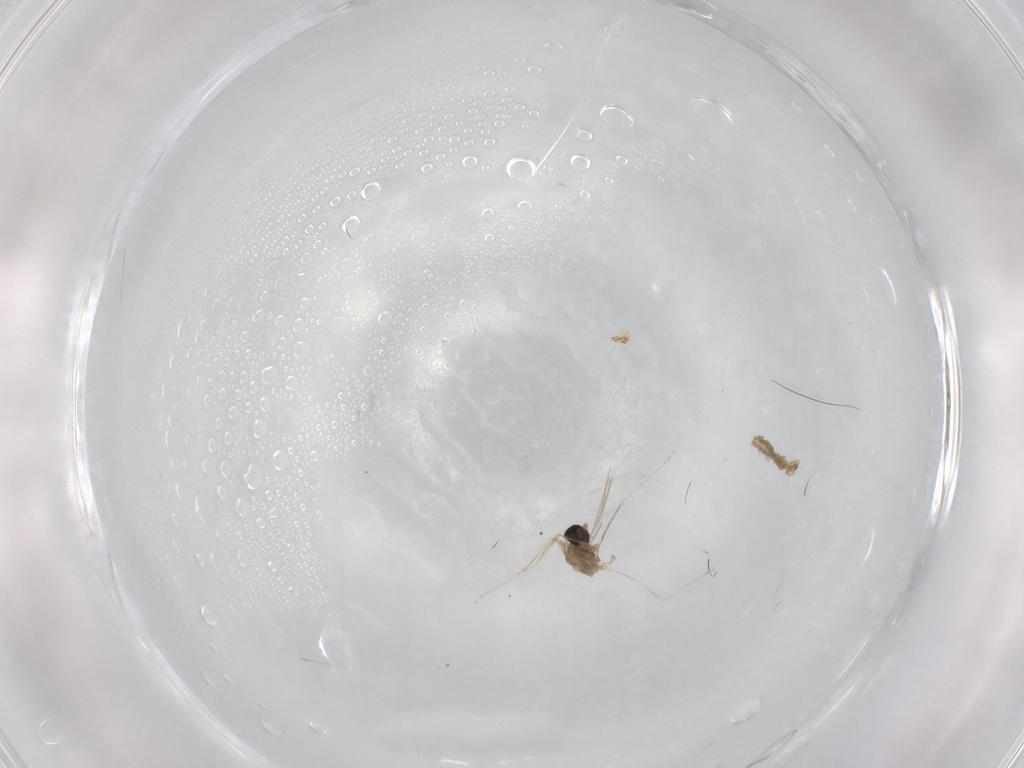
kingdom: Animalia
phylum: Arthropoda
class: Insecta
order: Diptera
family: Cecidomyiidae
